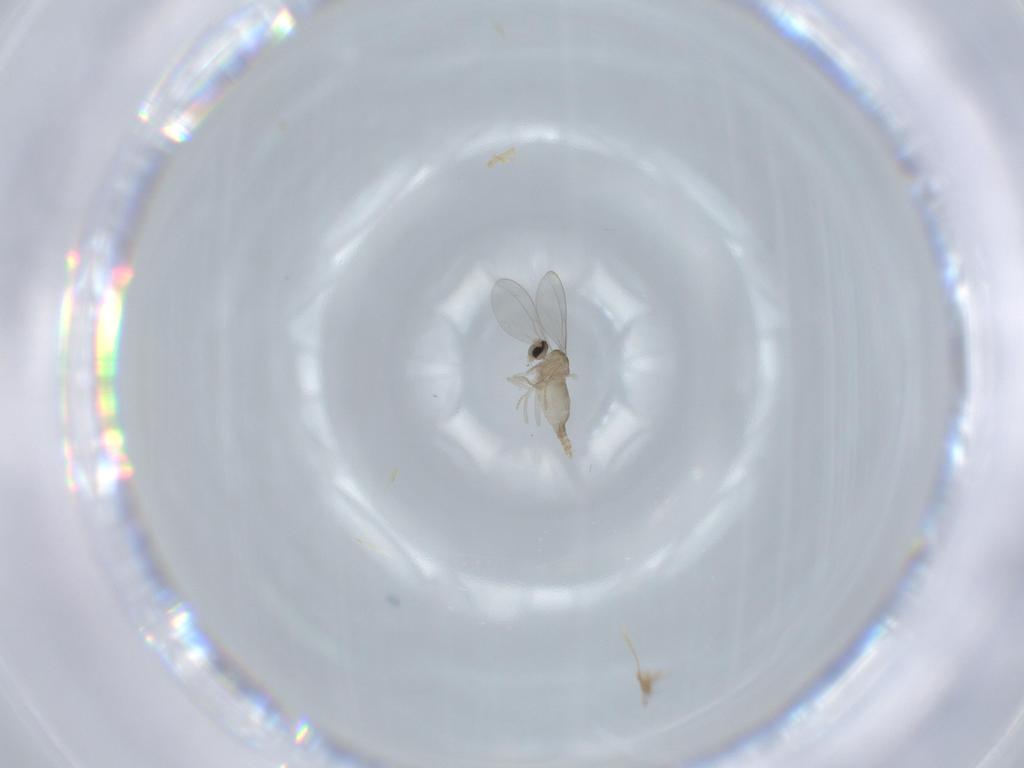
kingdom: Animalia
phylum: Arthropoda
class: Insecta
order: Diptera
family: Cecidomyiidae
